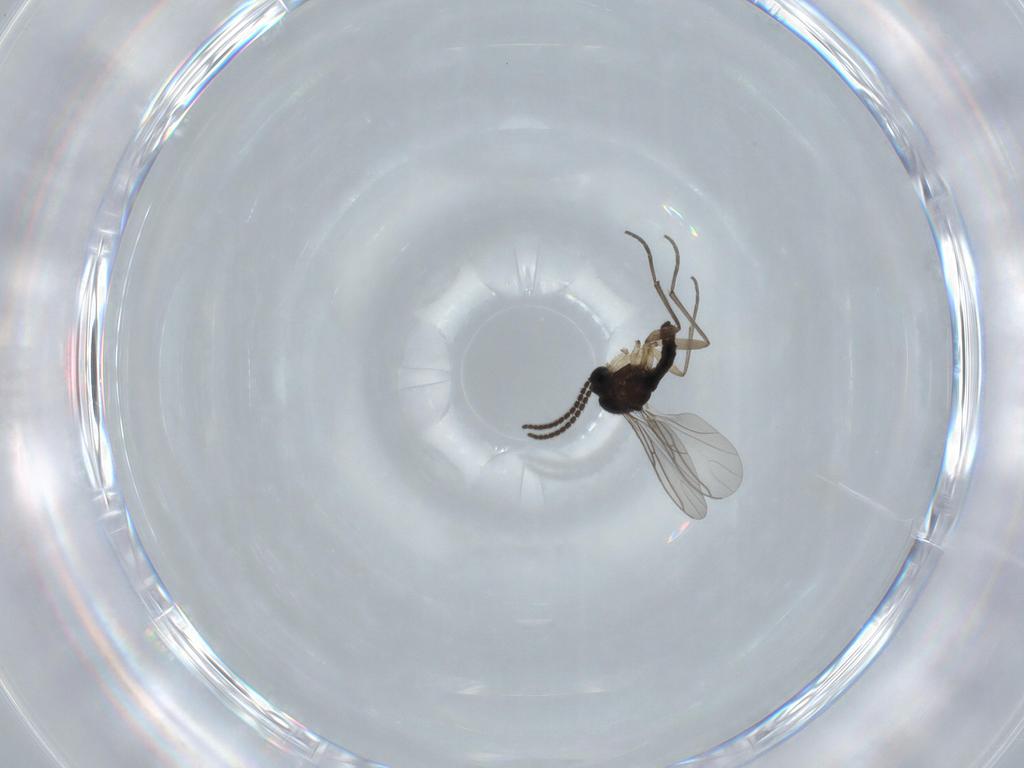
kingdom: Animalia
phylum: Arthropoda
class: Insecta
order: Diptera
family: Sciaridae
